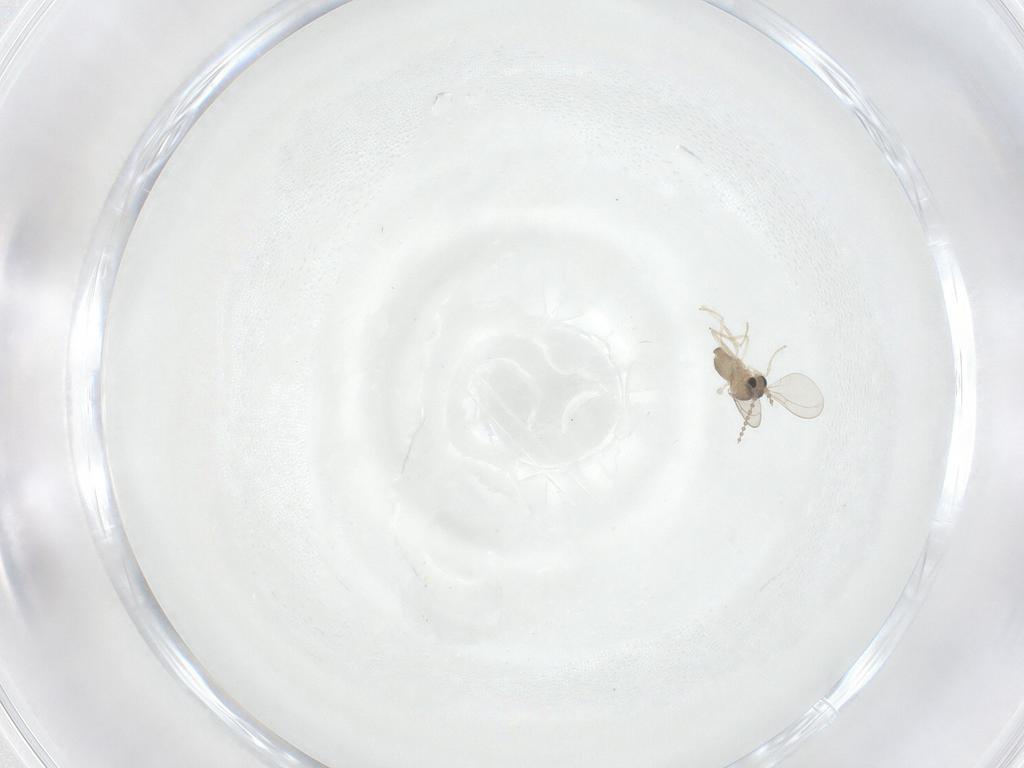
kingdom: Animalia
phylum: Arthropoda
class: Insecta
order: Diptera
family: Cecidomyiidae
